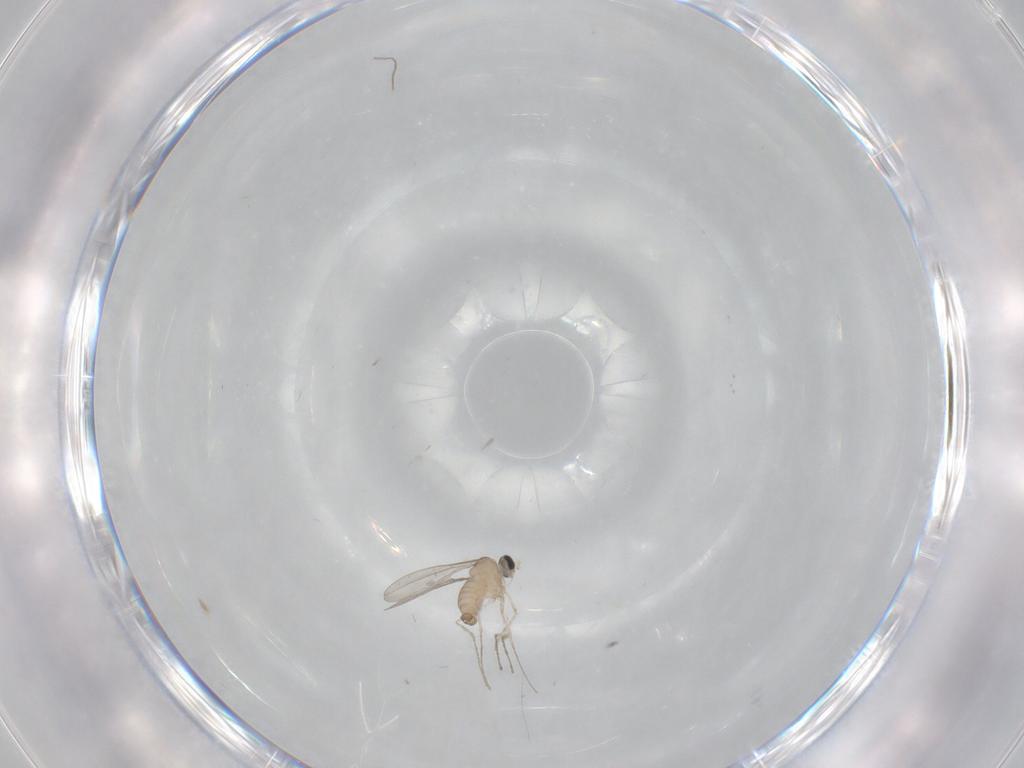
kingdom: Animalia
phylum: Arthropoda
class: Insecta
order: Diptera
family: Cecidomyiidae
